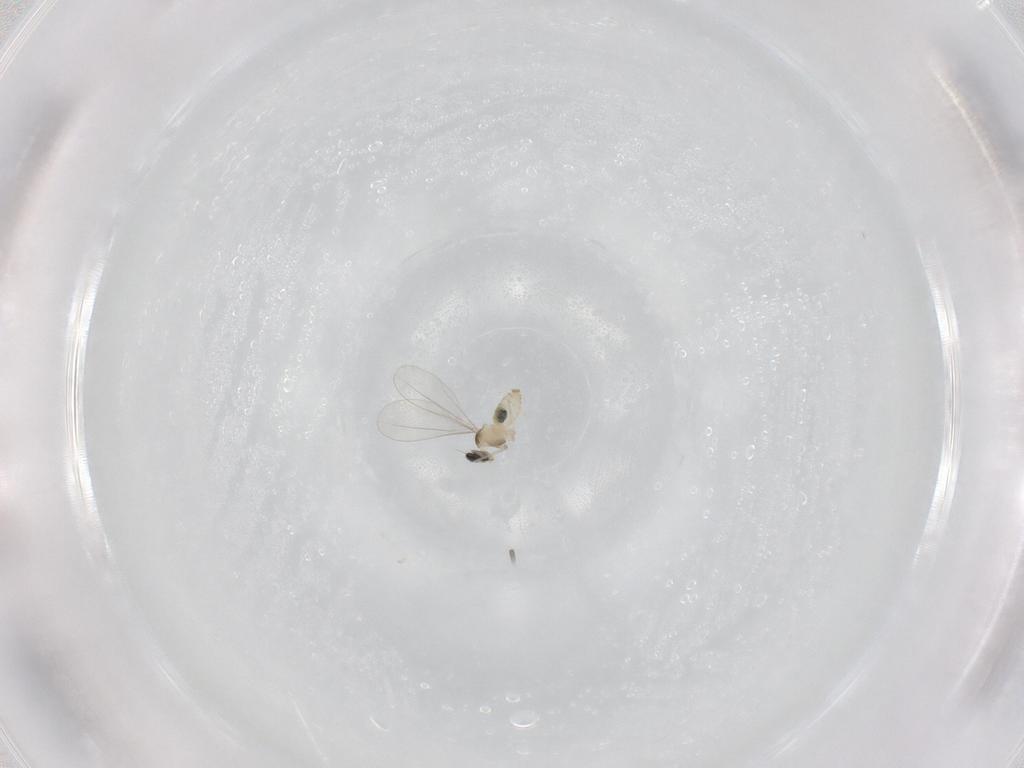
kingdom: Animalia
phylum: Arthropoda
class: Insecta
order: Diptera
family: Cecidomyiidae
